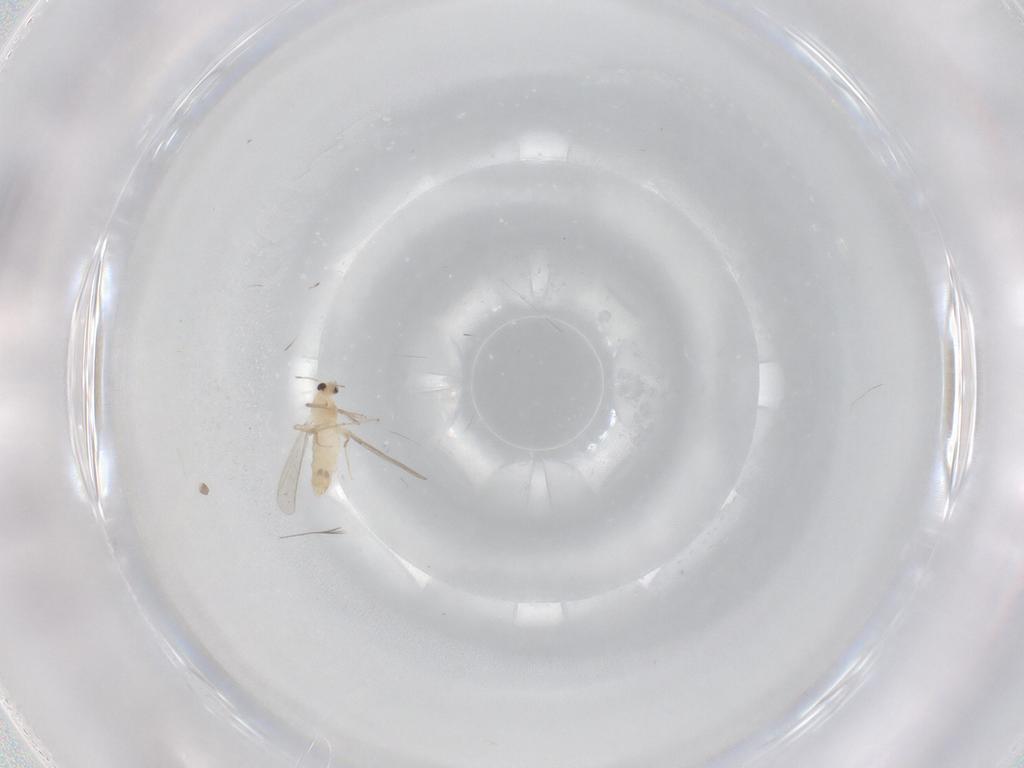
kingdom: Animalia
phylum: Arthropoda
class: Insecta
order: Diptera
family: Chironomidae
